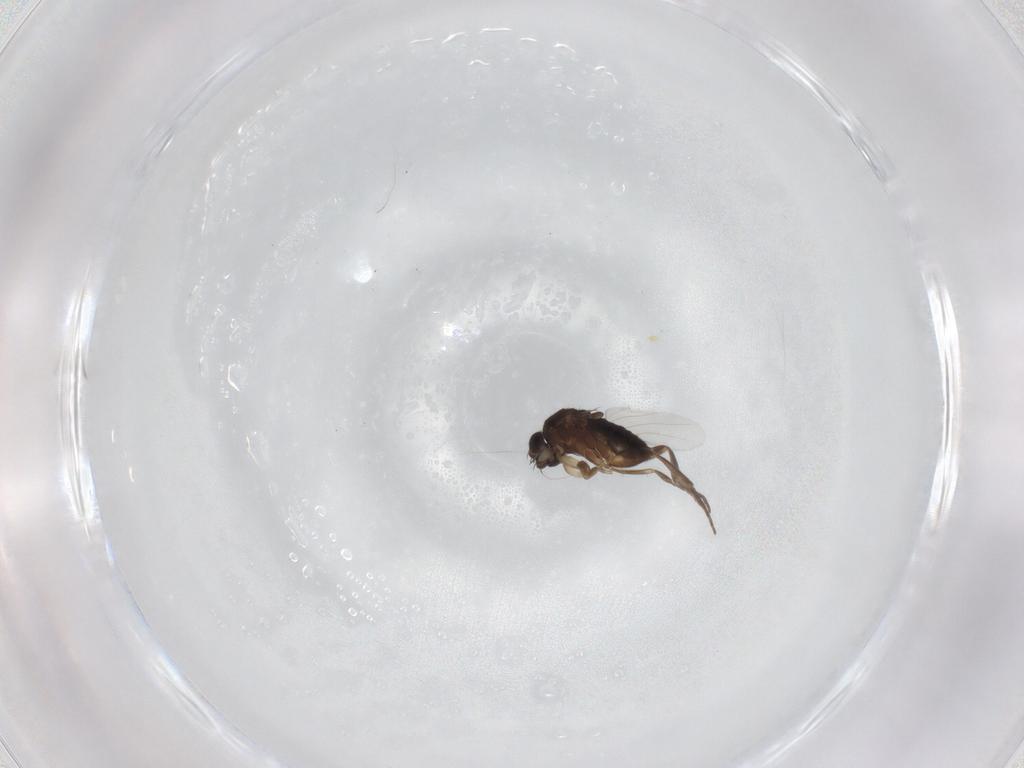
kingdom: Animalia
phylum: Arthropoda
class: Insecta
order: Diptera
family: Phoridae
